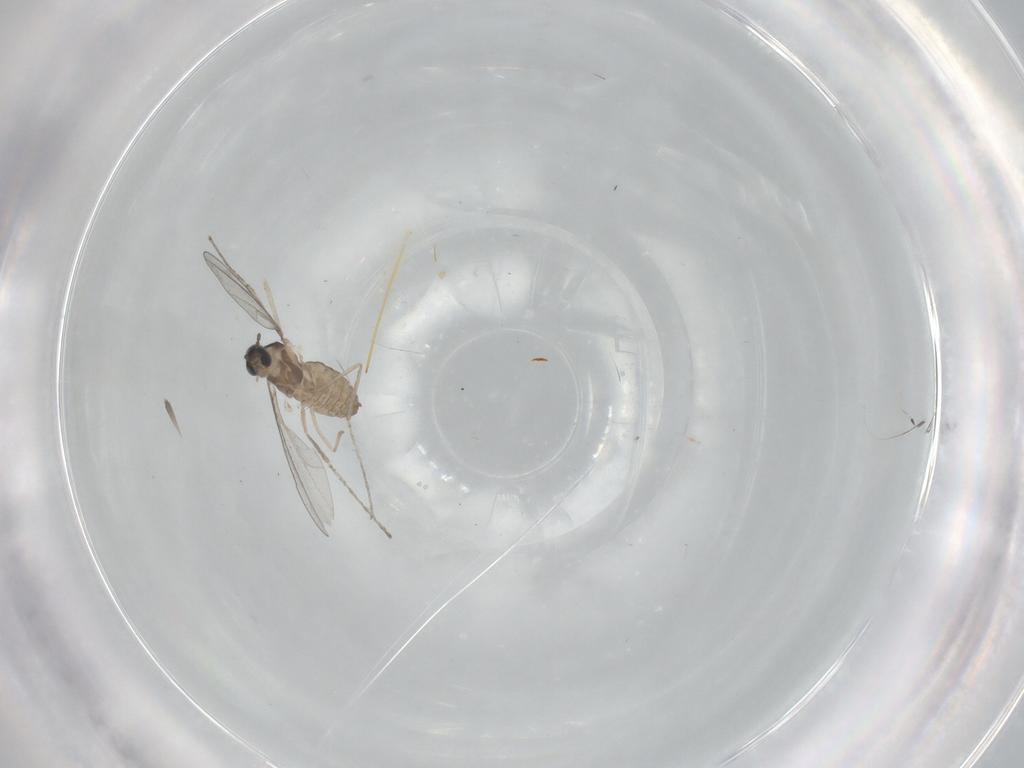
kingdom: Animalia
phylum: Arthropoda
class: Insecta
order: Diptera
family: Cecidomyiidae
